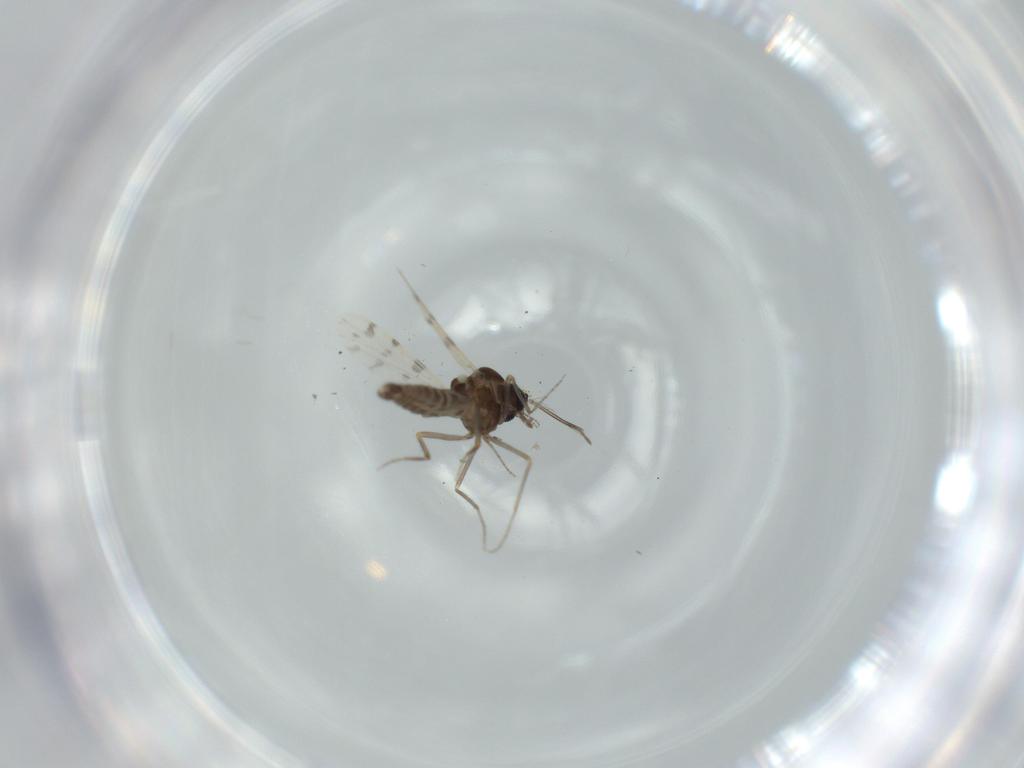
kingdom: Animalia
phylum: Arthropoda
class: Insecta
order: Diptera
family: Ceratopogonidae
